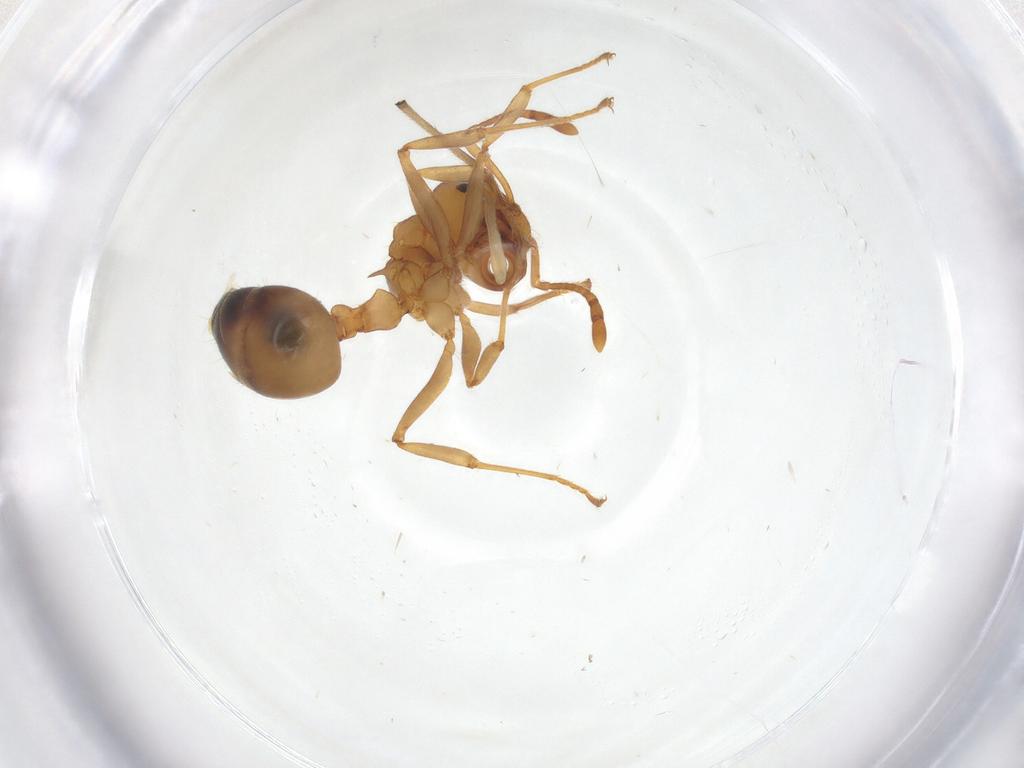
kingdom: Animalia
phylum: Arthropoda
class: Insecta
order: Hymenoptera
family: Formicidae
